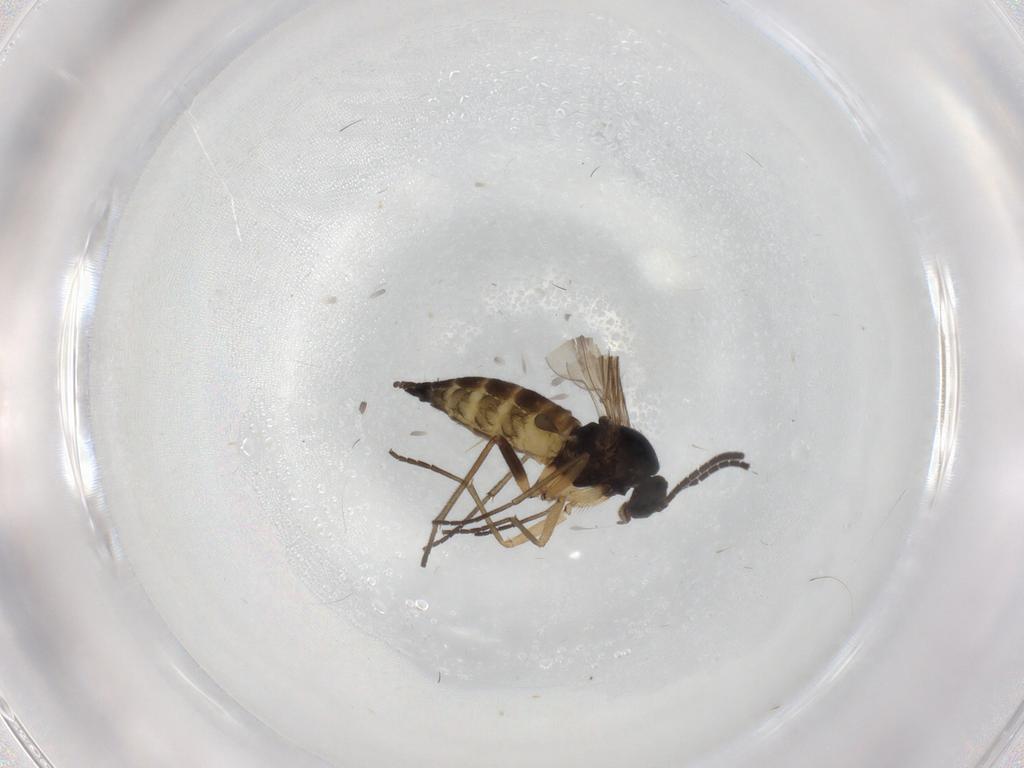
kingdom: Animalia
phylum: Arthropoda
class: Insecta
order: Diptera
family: Sciaridae
